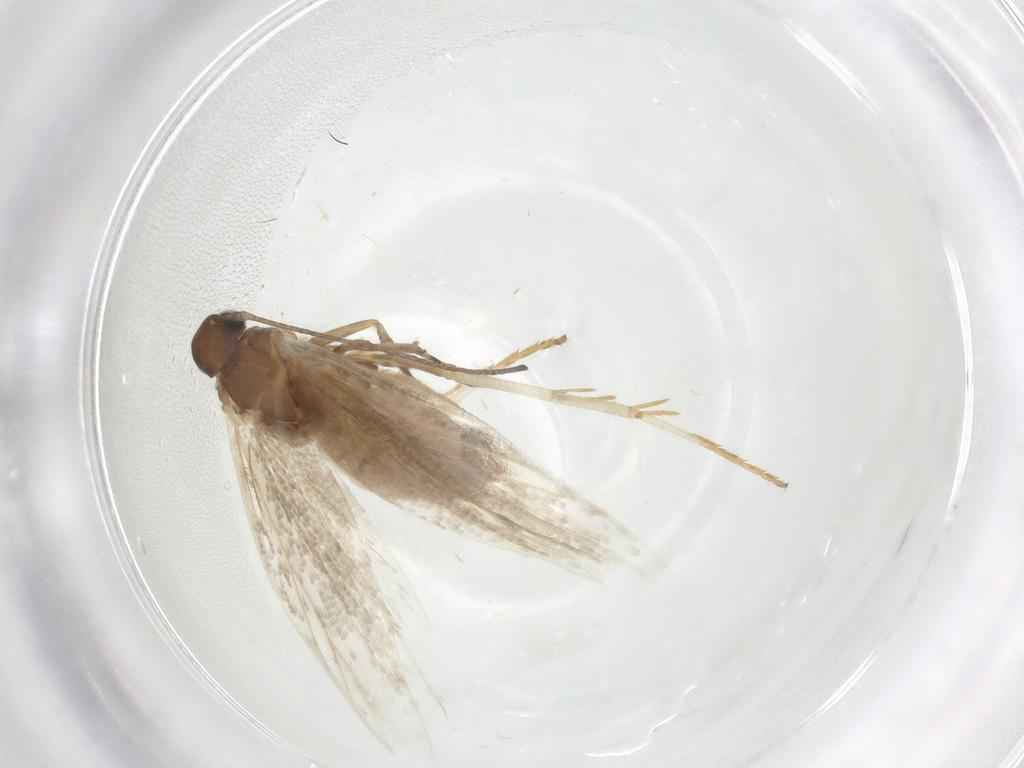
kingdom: Animalia
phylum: Arthropoda
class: Insecta
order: Lepidoptera
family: Gelechiidae
